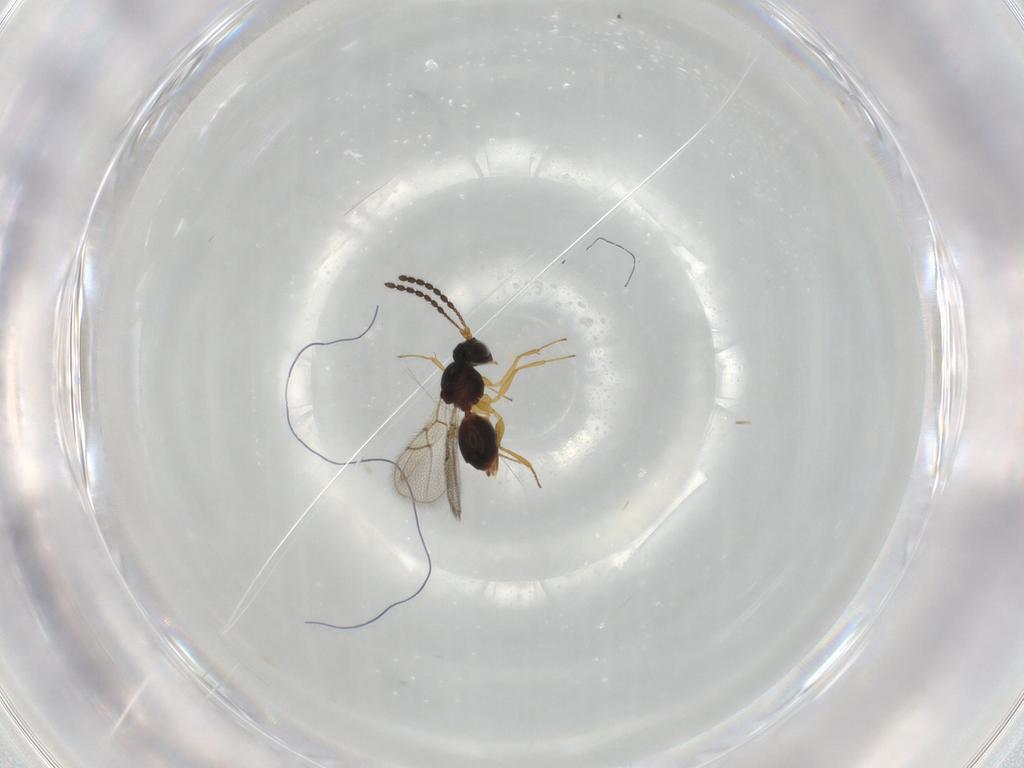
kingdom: Animalia
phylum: Arthropoda
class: Insecta
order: Hymenoptera
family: Figitidae
